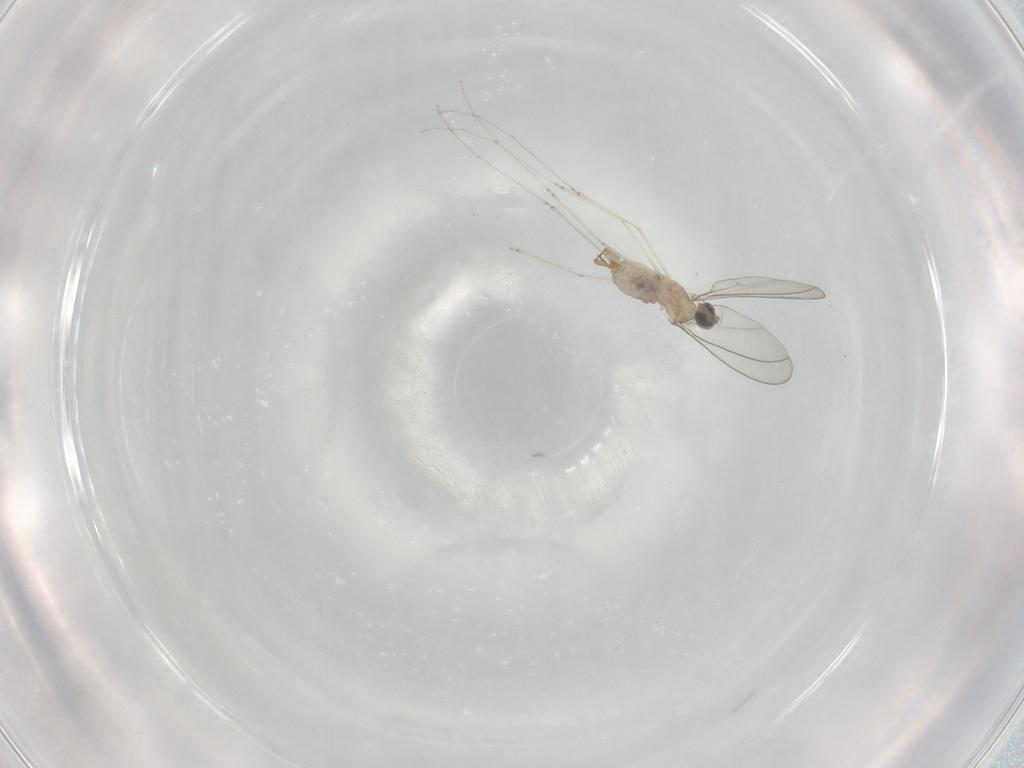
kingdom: Animalia
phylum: Arthropoda
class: Insecta
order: Diptera
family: Cecidomyiidae
